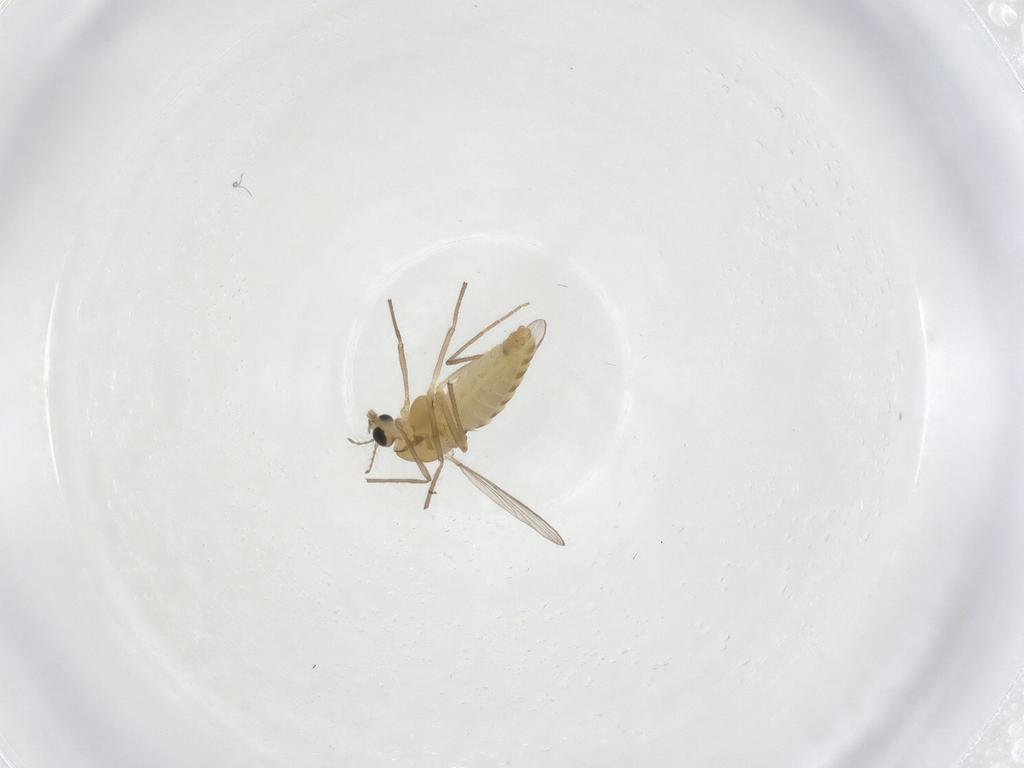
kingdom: Animalia
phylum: Arthropoda
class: Insecta
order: Diptera
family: Chironomidae
